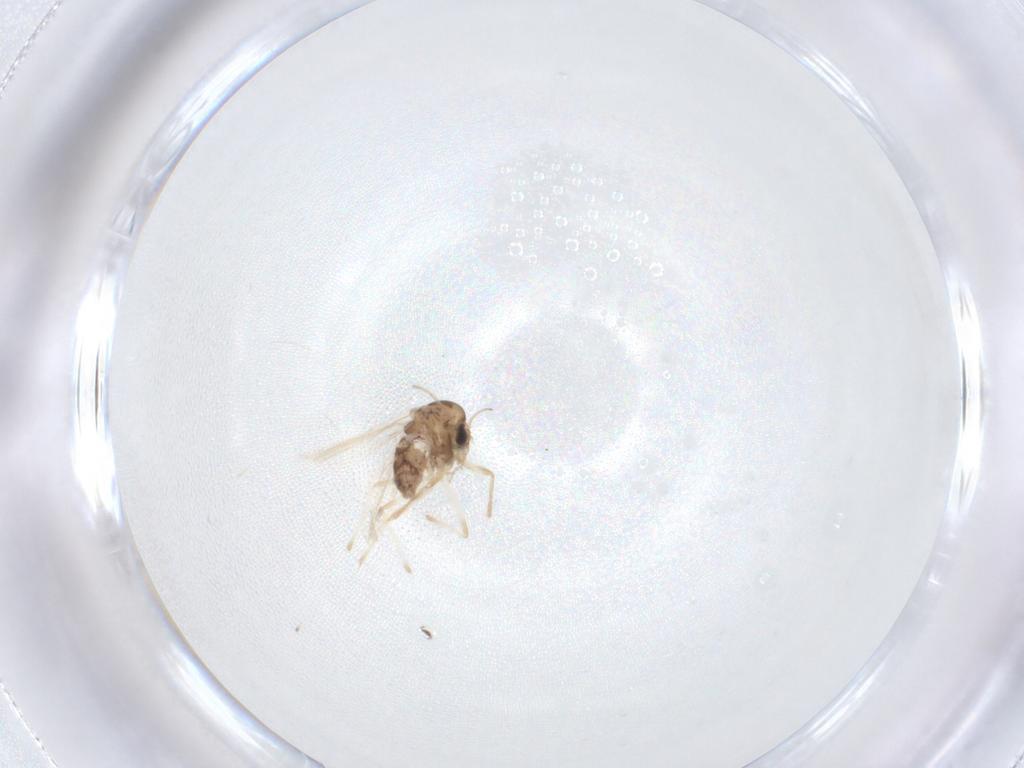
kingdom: Animalia
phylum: Arthropoda
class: Insecta
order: Diptera
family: Chironomidae
